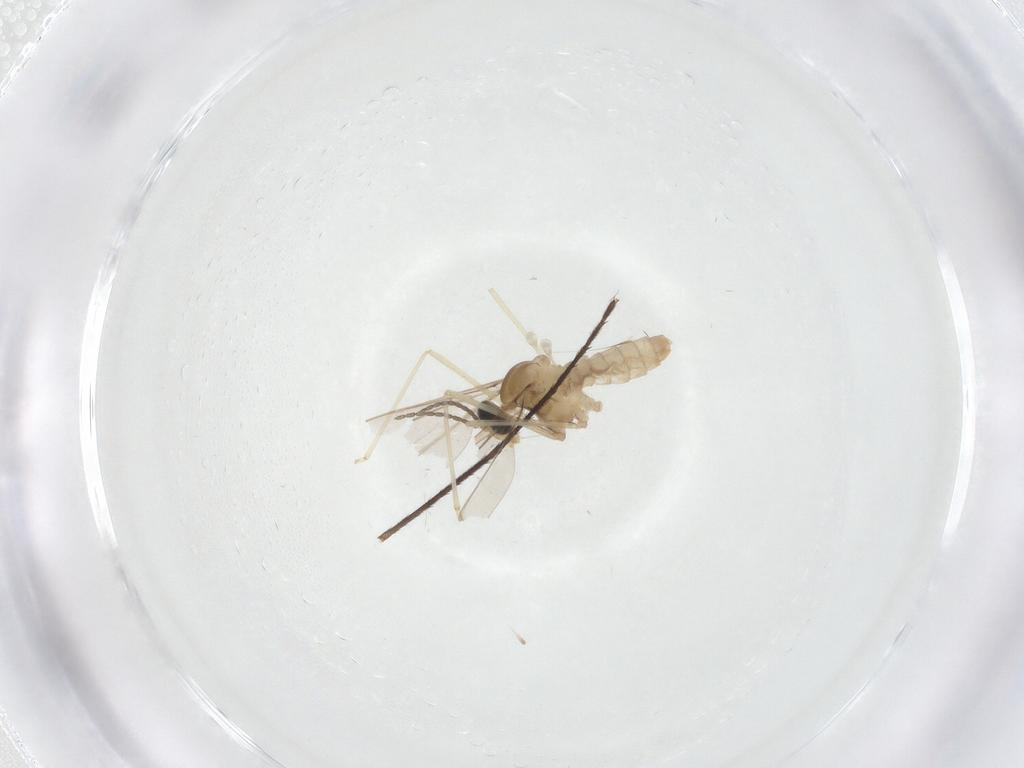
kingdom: Animalia
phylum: Arthropoda
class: Insecta
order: Diptera
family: Cecidomyiidae
